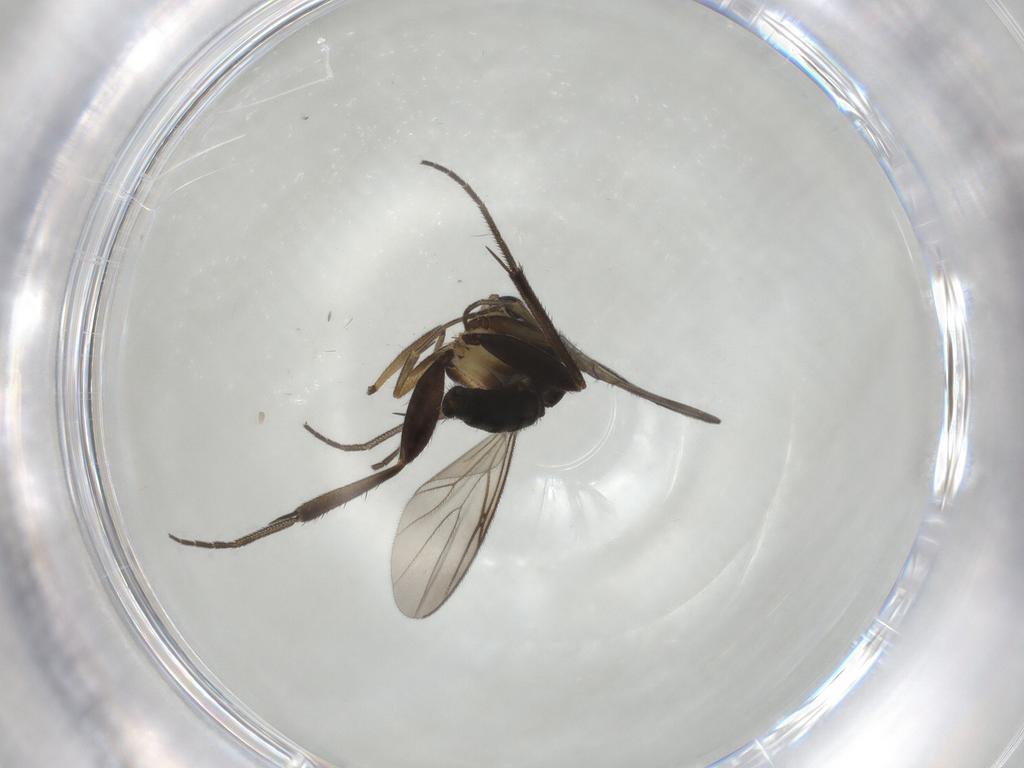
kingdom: Animalia
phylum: Arthropoda
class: Insecta
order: Diptera
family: Sciaridae
